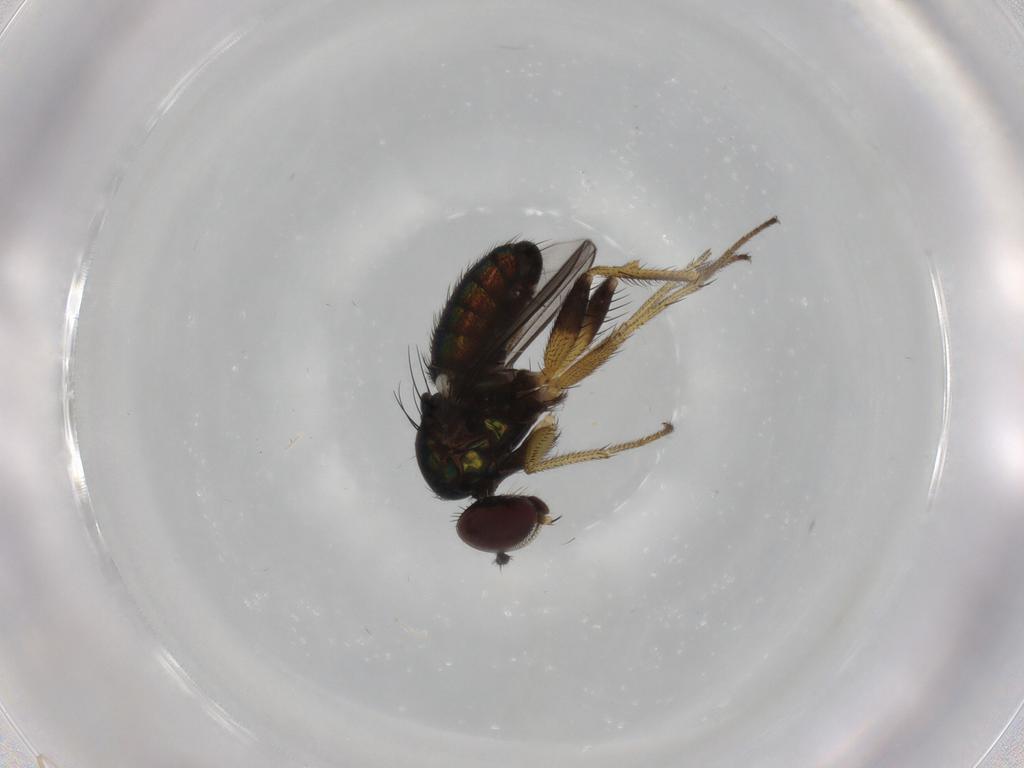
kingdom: Animalia
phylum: Arthropoda
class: Insecta
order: Diptera
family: Dolichopodidae
